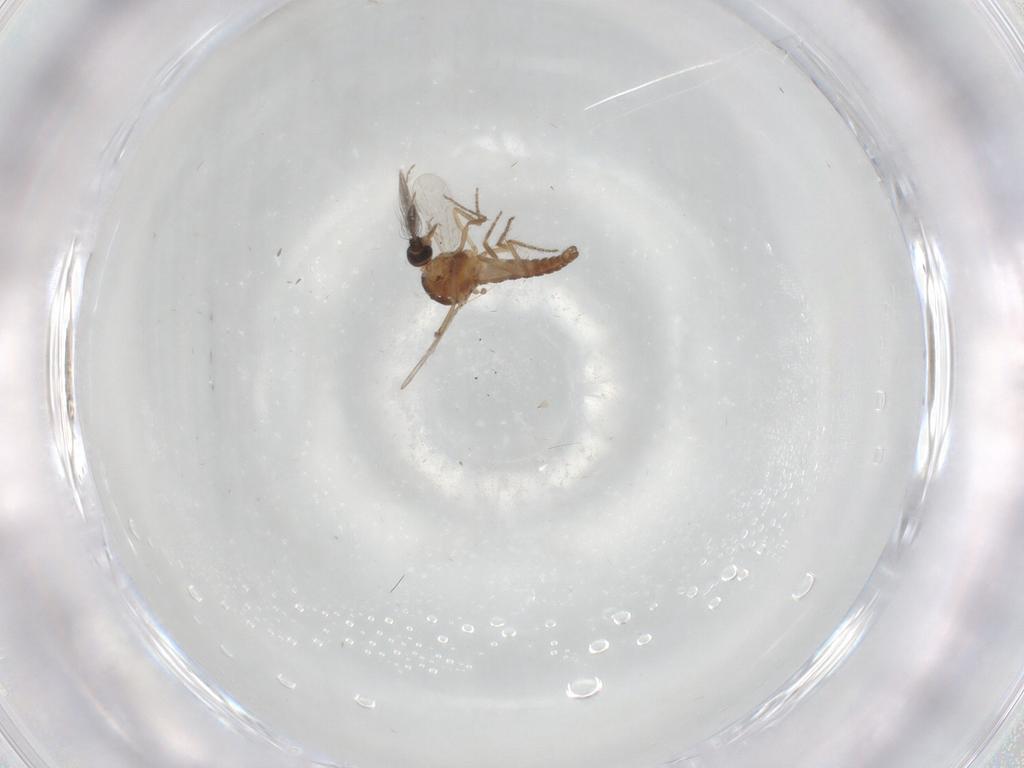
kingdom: Animalia
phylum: Arthropoda
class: Insecta
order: Diptera
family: Ceratopogonidae
